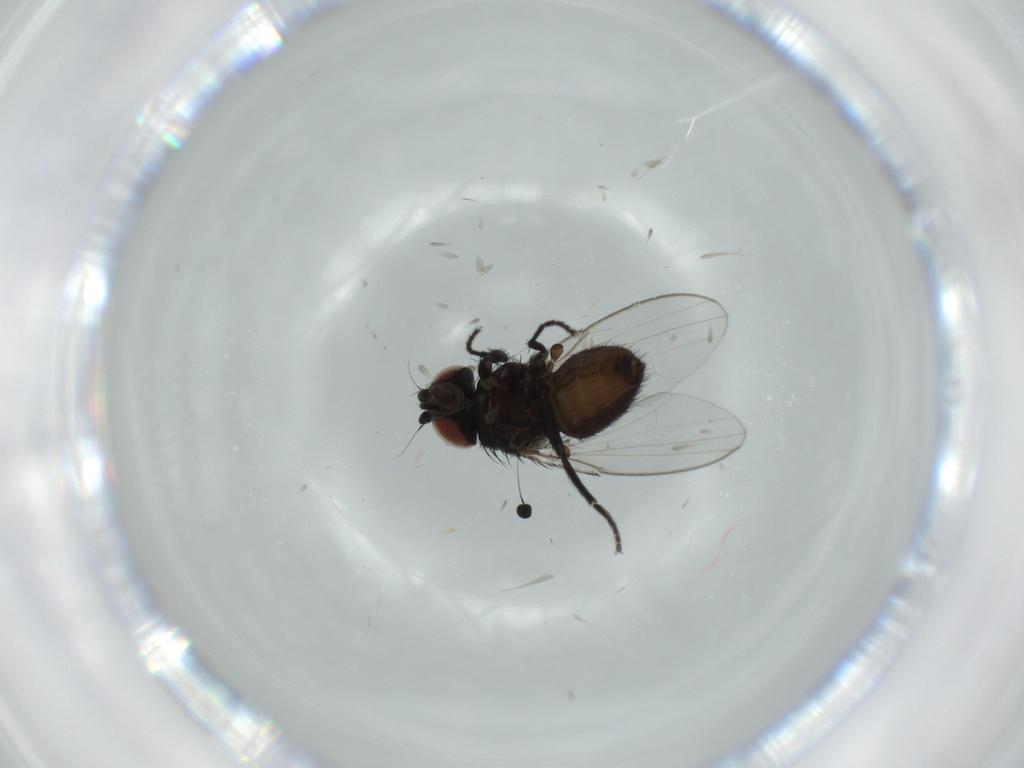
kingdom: Animalia
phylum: Arthropoda
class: Insecta
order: Diptera
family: Milichiidae
